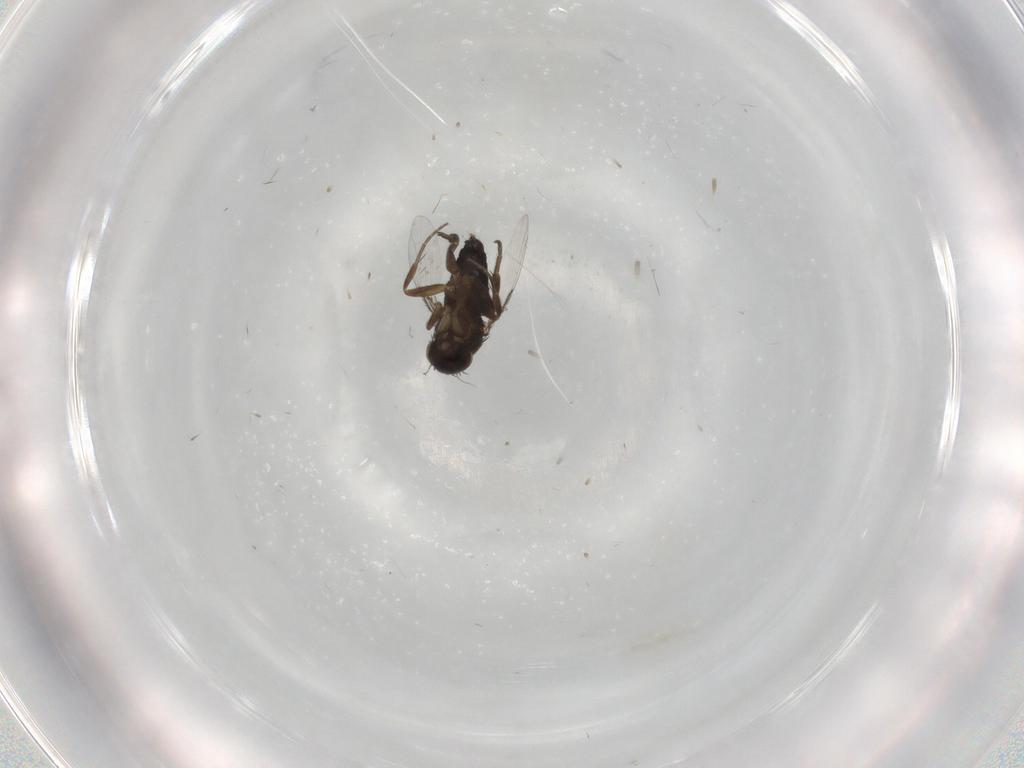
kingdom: Animalia
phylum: Arthropoda
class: Insecta
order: Diptera
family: Phoridae
